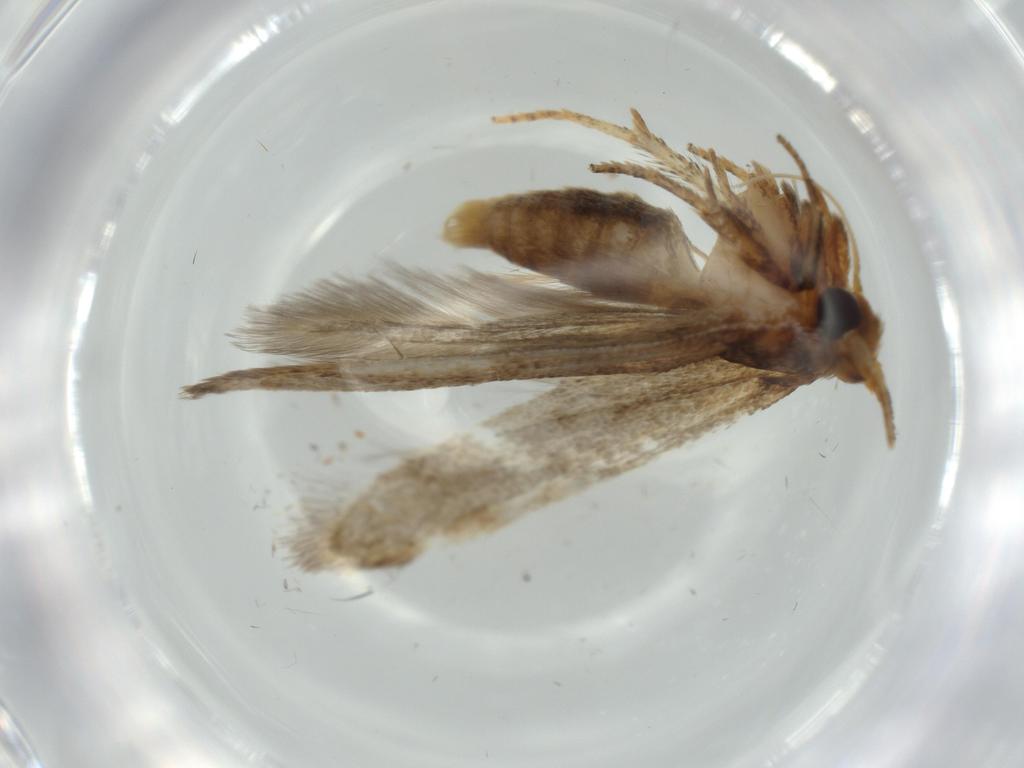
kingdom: Animalia
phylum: Arthropoda
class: Insecta
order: Lepidoptera
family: Blastobasidae
